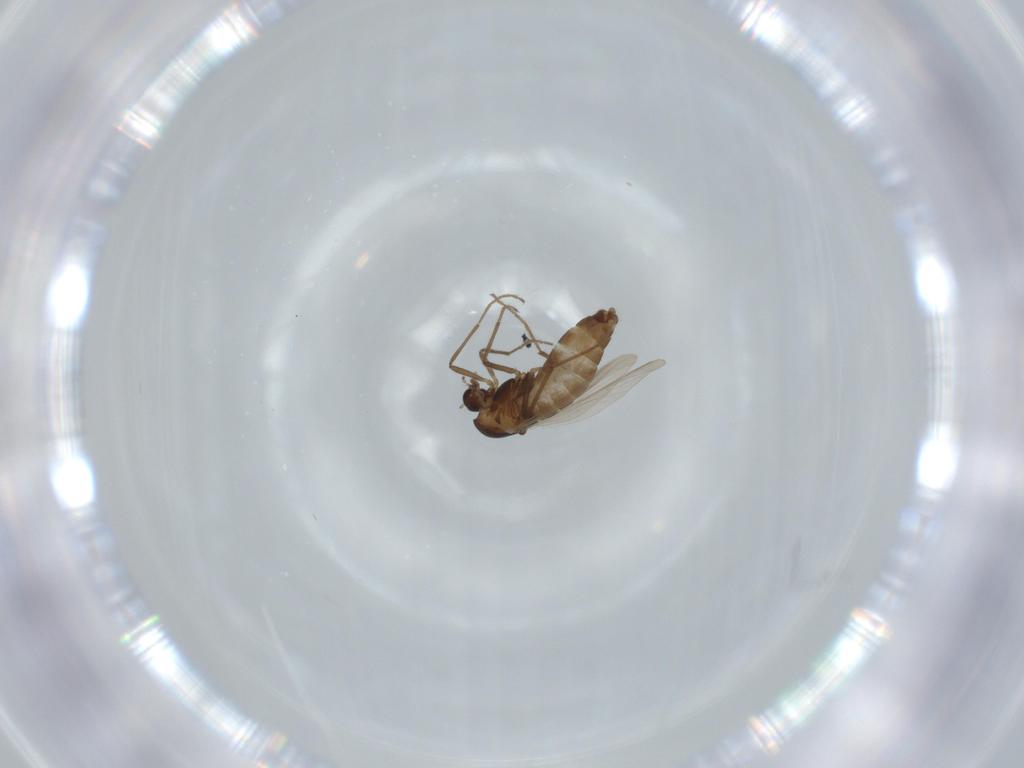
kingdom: Animalia
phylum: Arthropoda
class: Insecta
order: Diptera
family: Chironomidae
